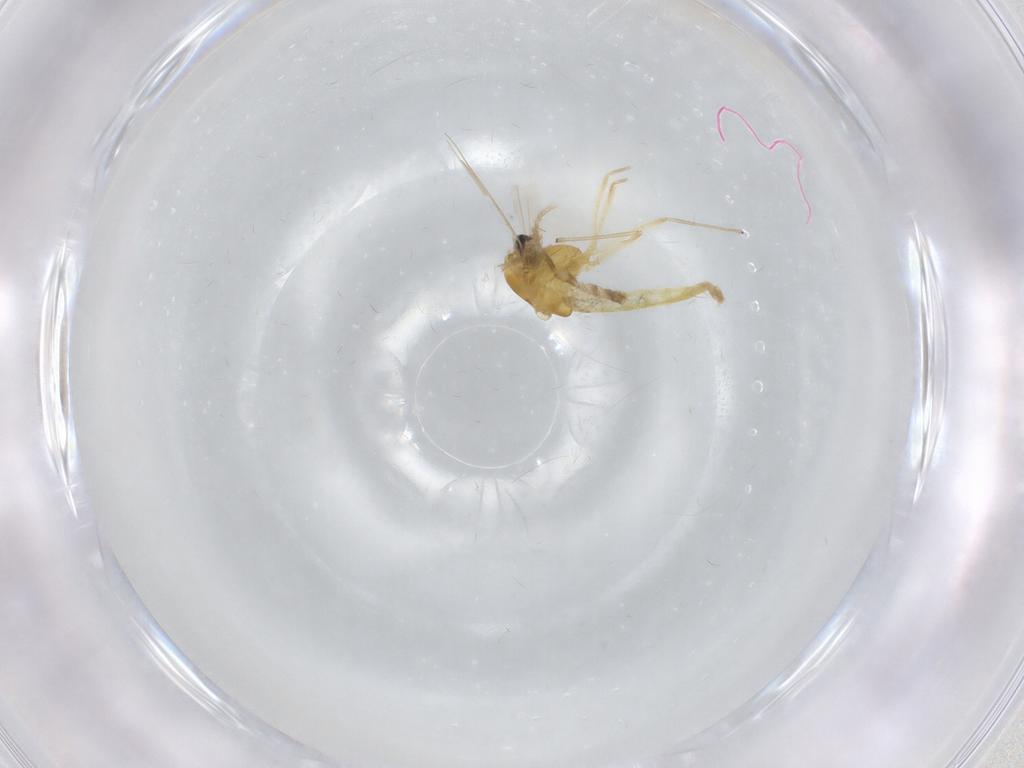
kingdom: Animalia
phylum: Arthropoda
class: Insecta
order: Diptera
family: Chironomidae
